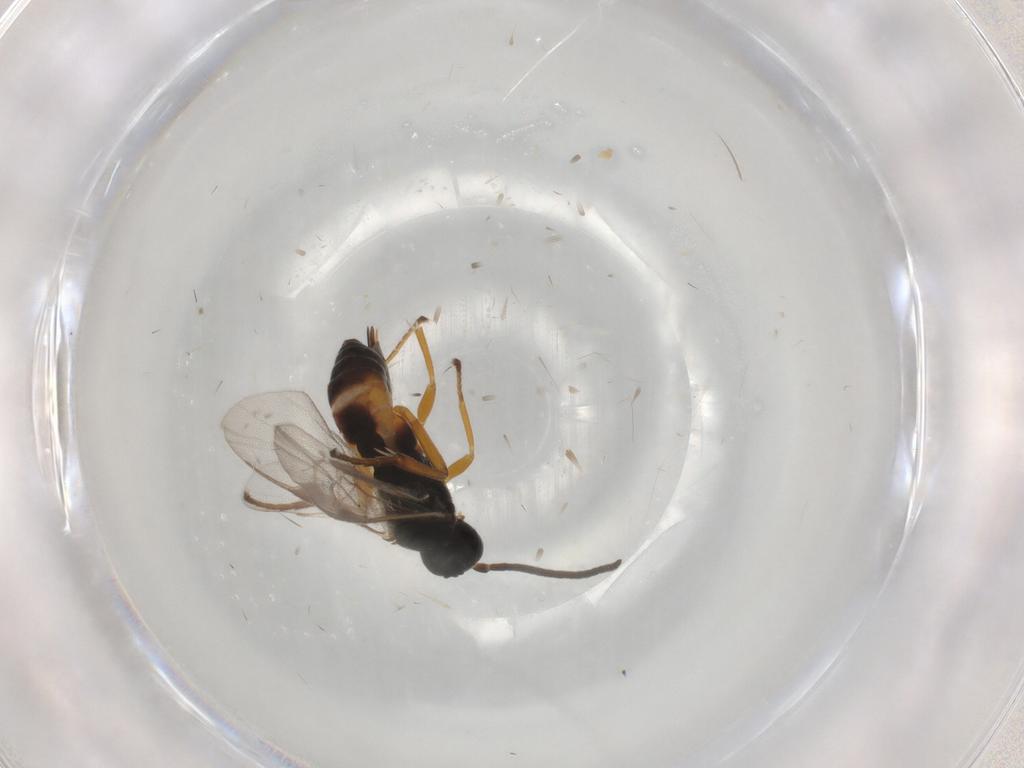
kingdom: Animalia
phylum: Arthropoda
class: Insecta
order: Hymenoptera
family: Braconidae
